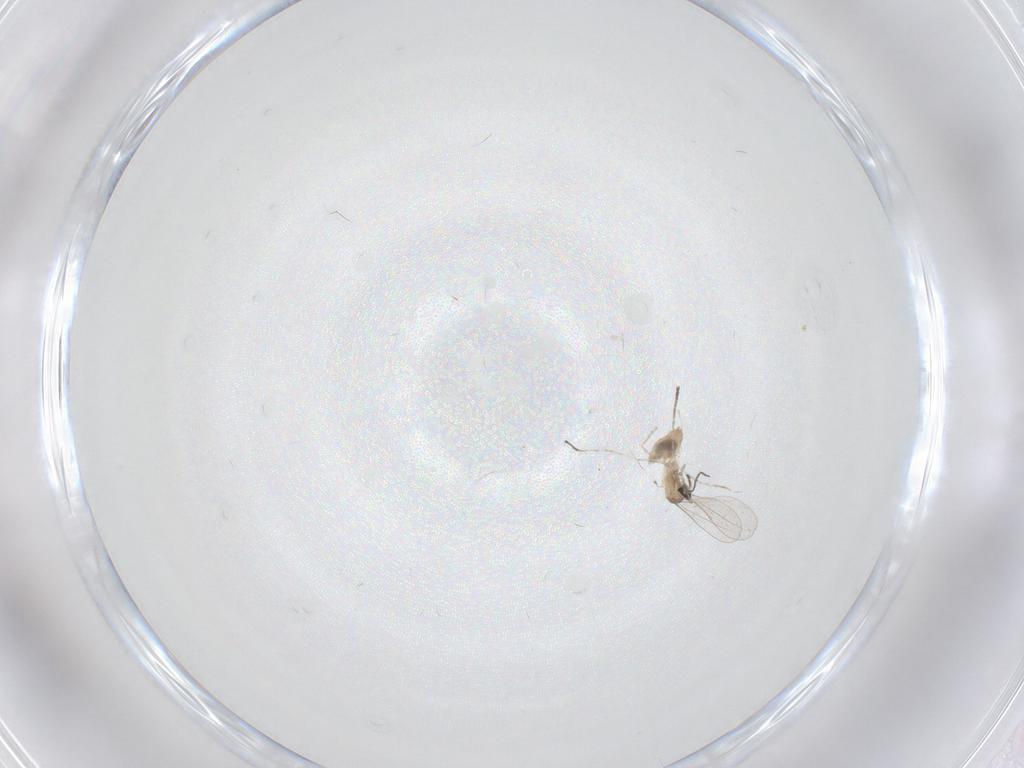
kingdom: Animalia
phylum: Arthropoda
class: Insecta
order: Diptera
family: Cecidomyiidae
